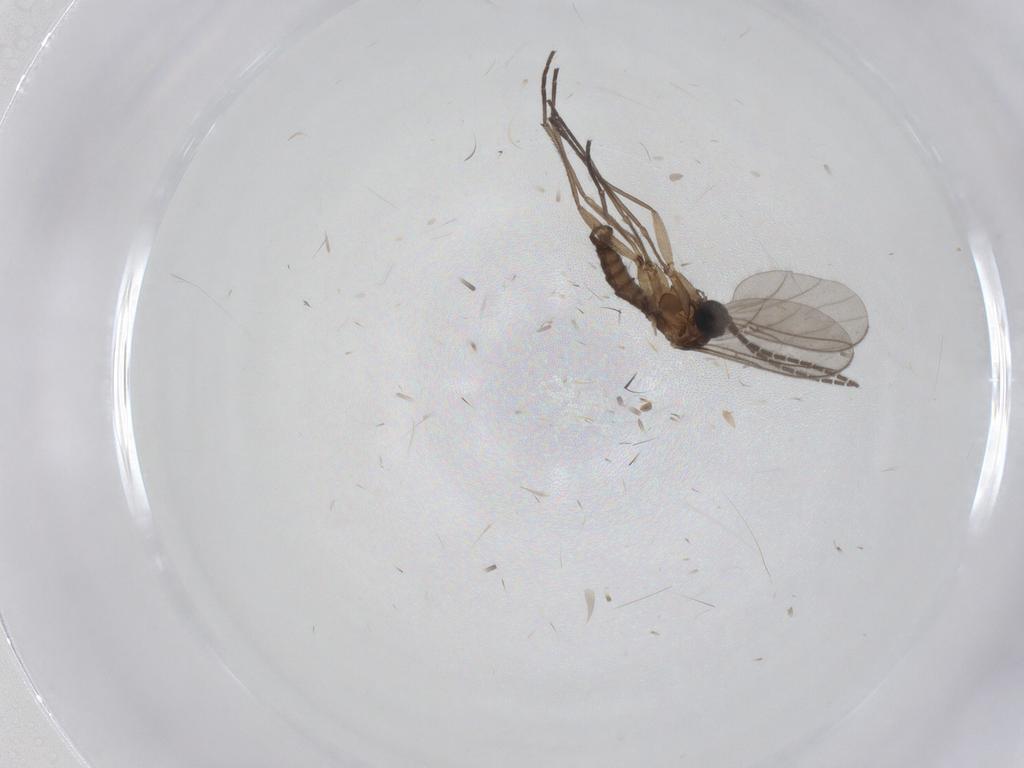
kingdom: Animalia
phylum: Arthropoda
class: Insecta
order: Diptera
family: Sciaridae
